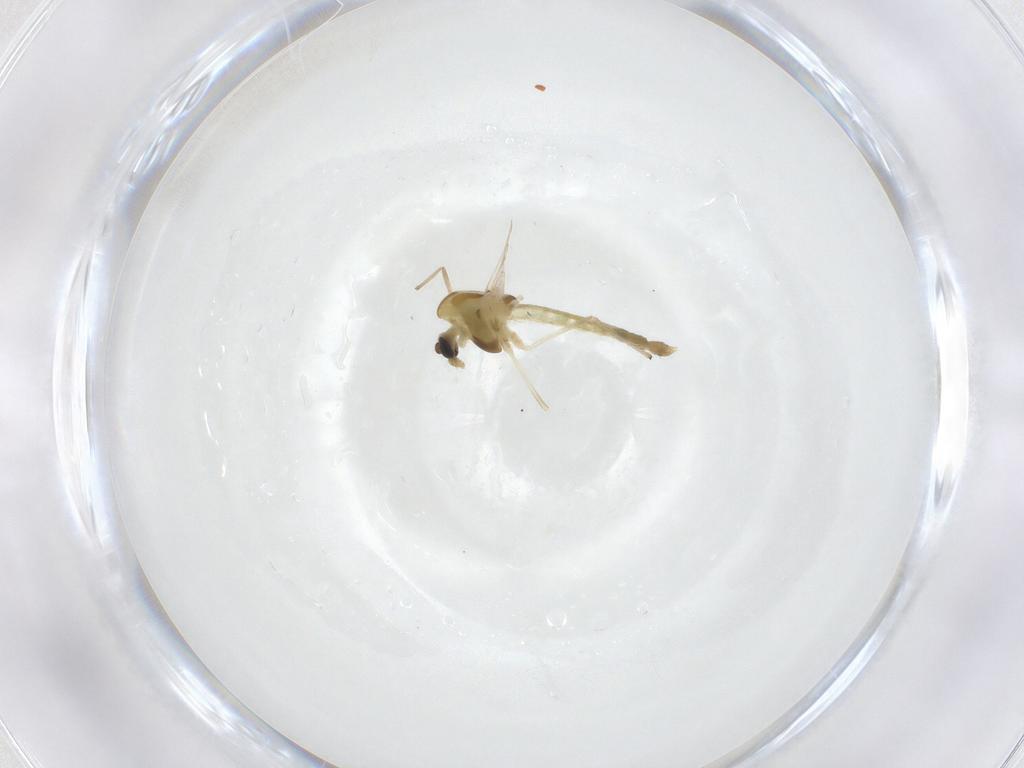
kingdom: Animalia
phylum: Arthropoda
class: Insecta
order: Diptera
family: Chironomidae
